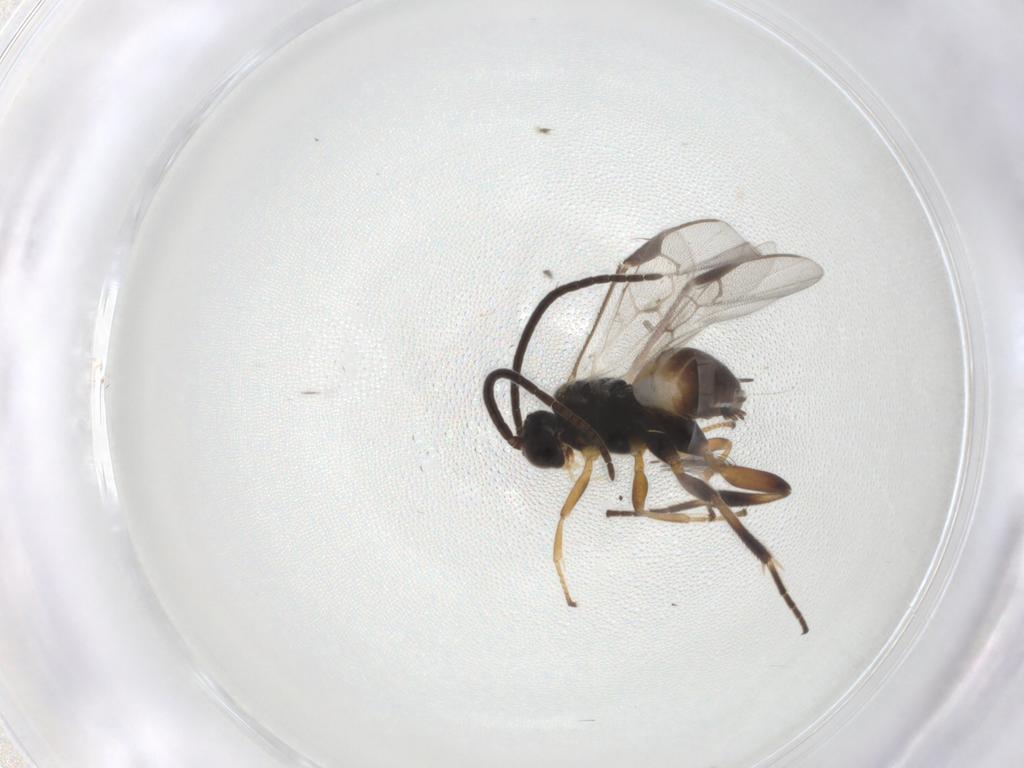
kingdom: Animalia
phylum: Arthropoda
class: Insecta
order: Hymenoptera
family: Braconidae
